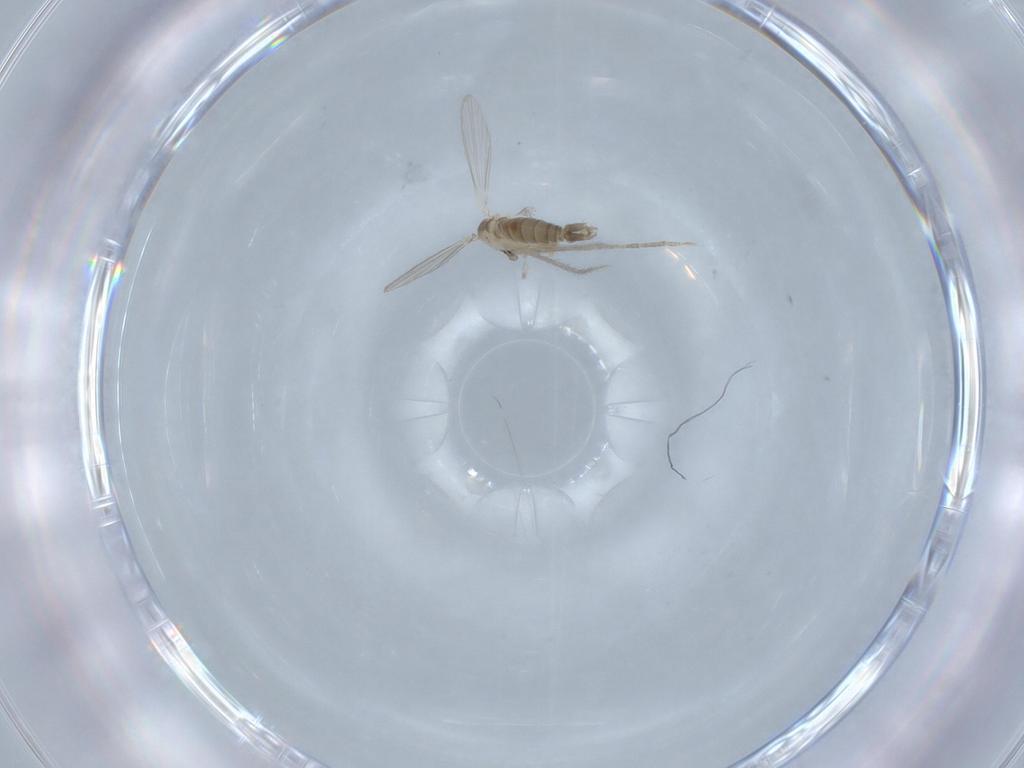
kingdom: Animalia
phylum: Arthropoda
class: Insecta
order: Diptera
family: Psychodidae
